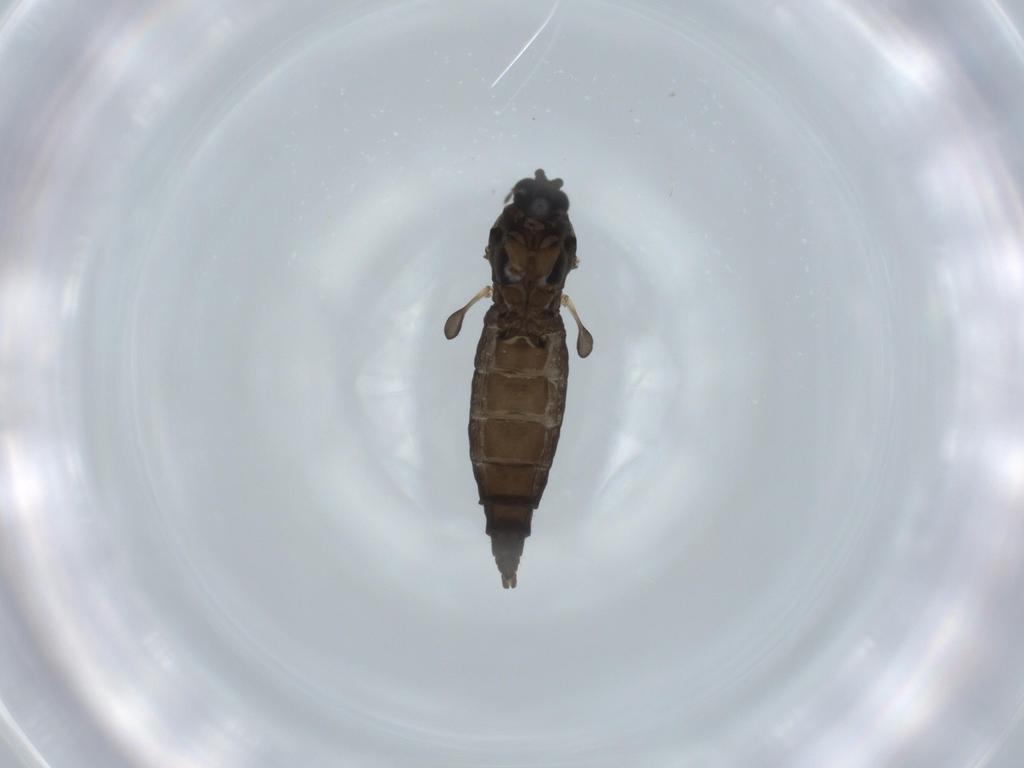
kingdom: Animalia
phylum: Arthropoda
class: Insecta
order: Diptera
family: Sciaridae
